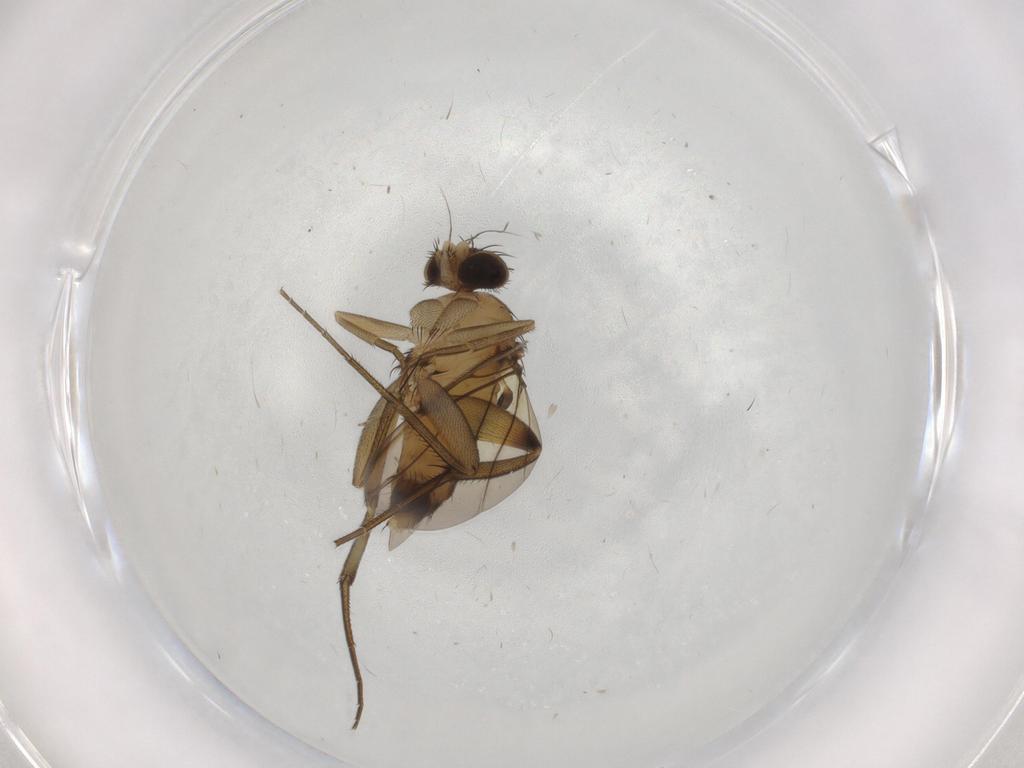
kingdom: Animalia
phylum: Arthropoda
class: Insecta
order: Diptera
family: Phoridae
